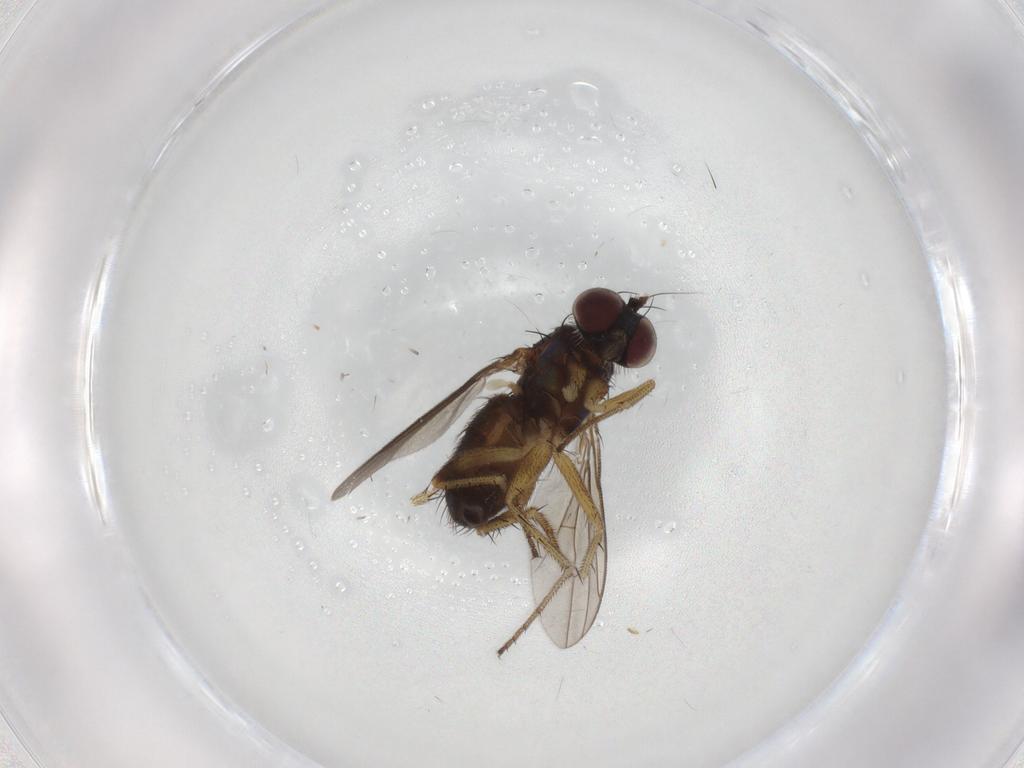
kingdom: Animalia
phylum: Arthropoda
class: Insecta
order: Diptera
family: Dolichopodidae
